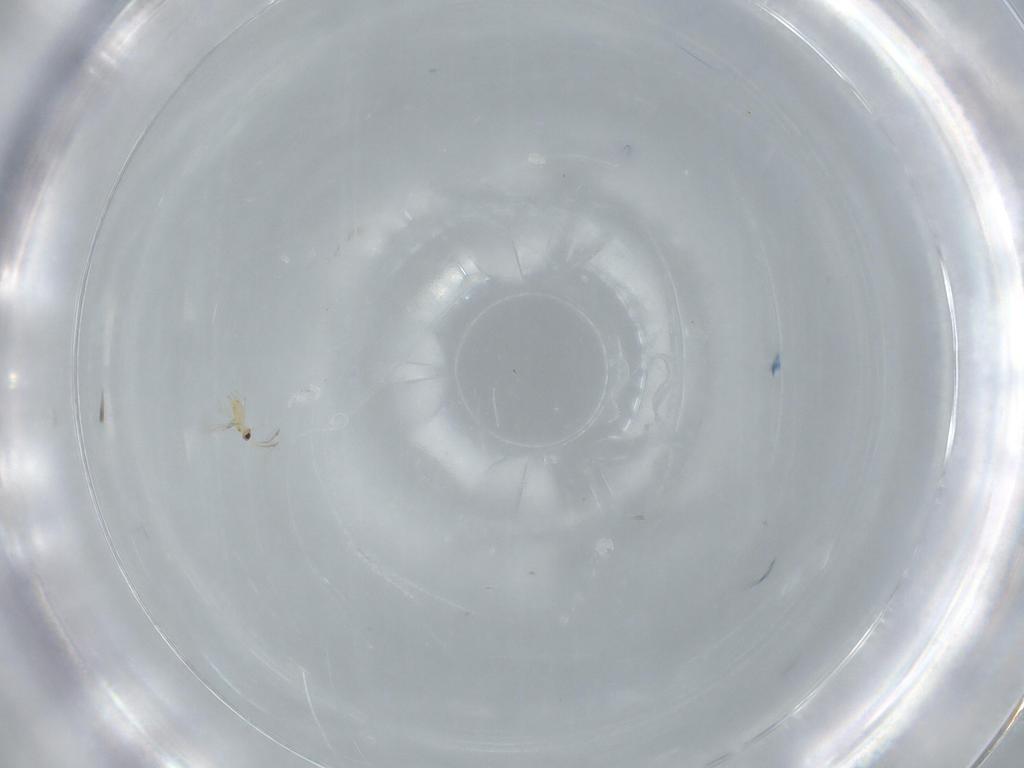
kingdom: Animalia
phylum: Arthropoda
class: Insecta
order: Hymenoptera
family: Mymaridae
